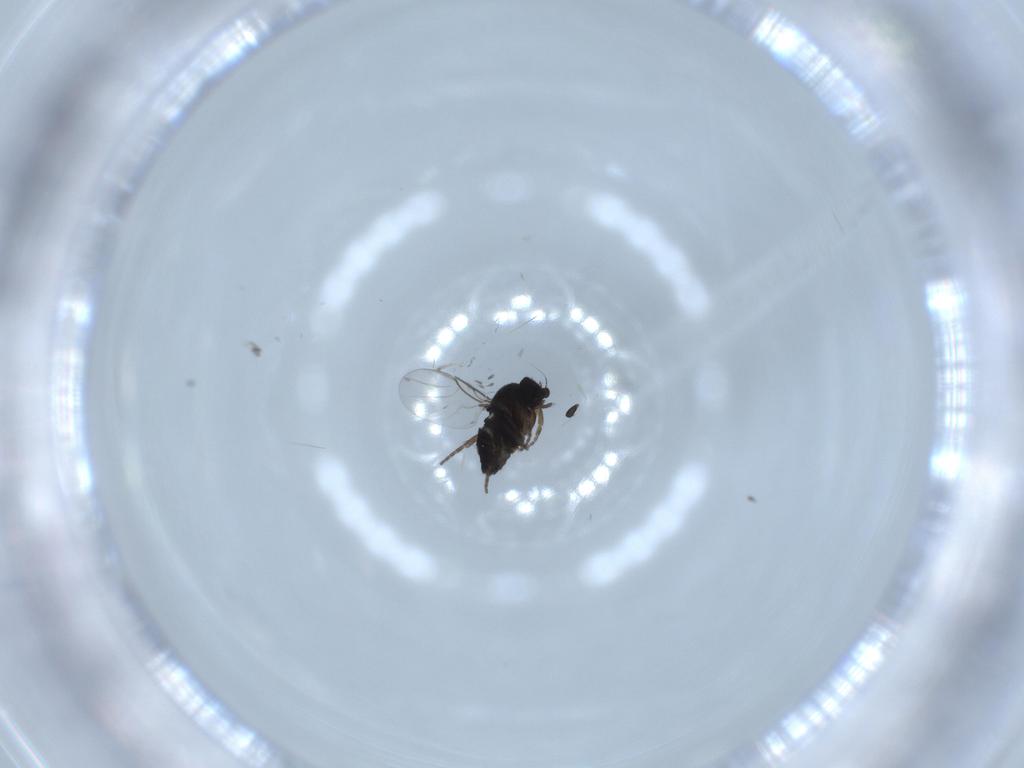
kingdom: Animalia
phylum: Arthropoda
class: Insecta
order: Diptera
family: Phoridae
